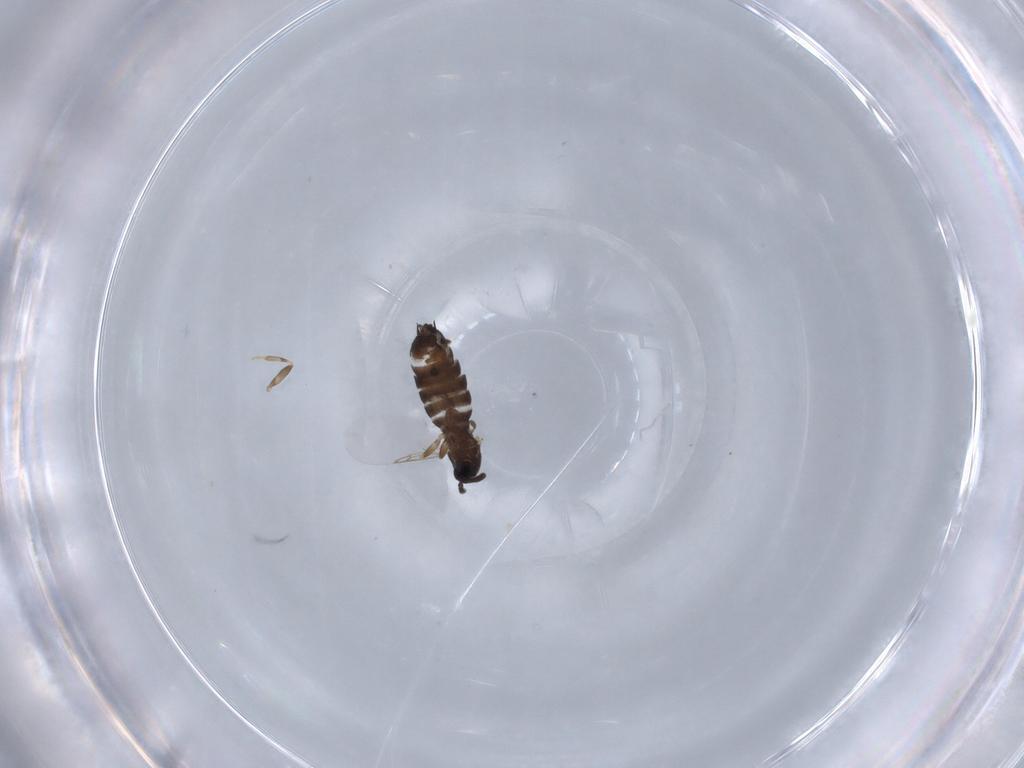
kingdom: Animalia
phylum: Arthropoda
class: Insecta
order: Diptera
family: Scatopsidae
